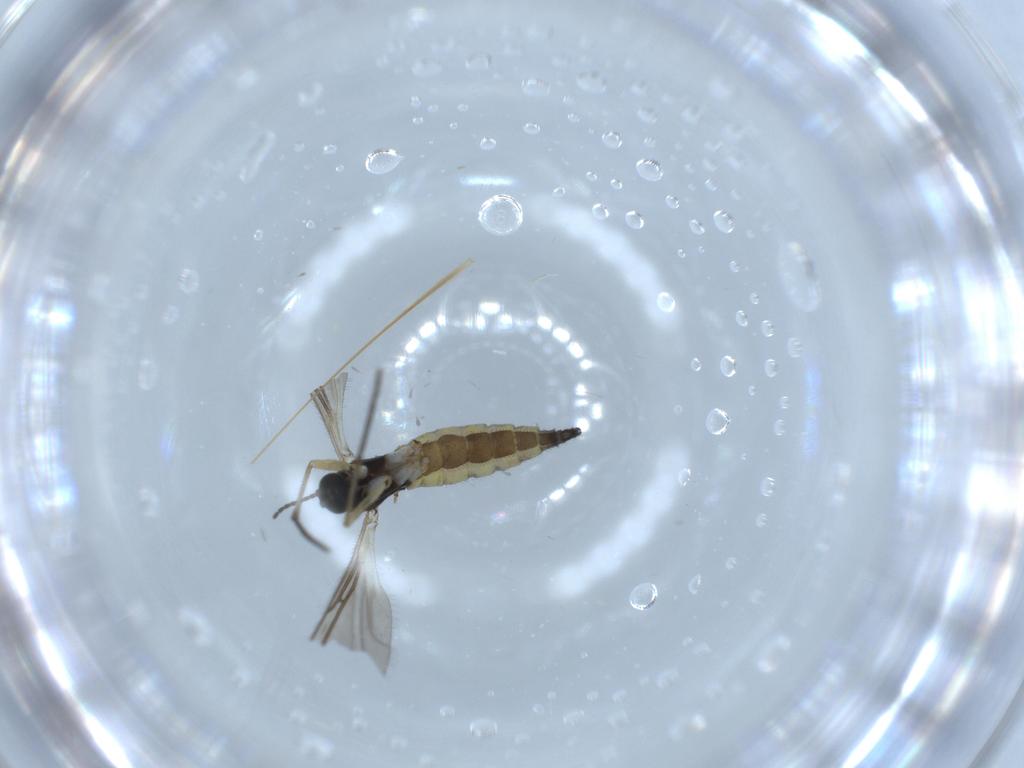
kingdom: Animalia
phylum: Arthropoda
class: Insecta
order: Diptera
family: Sciaridae
